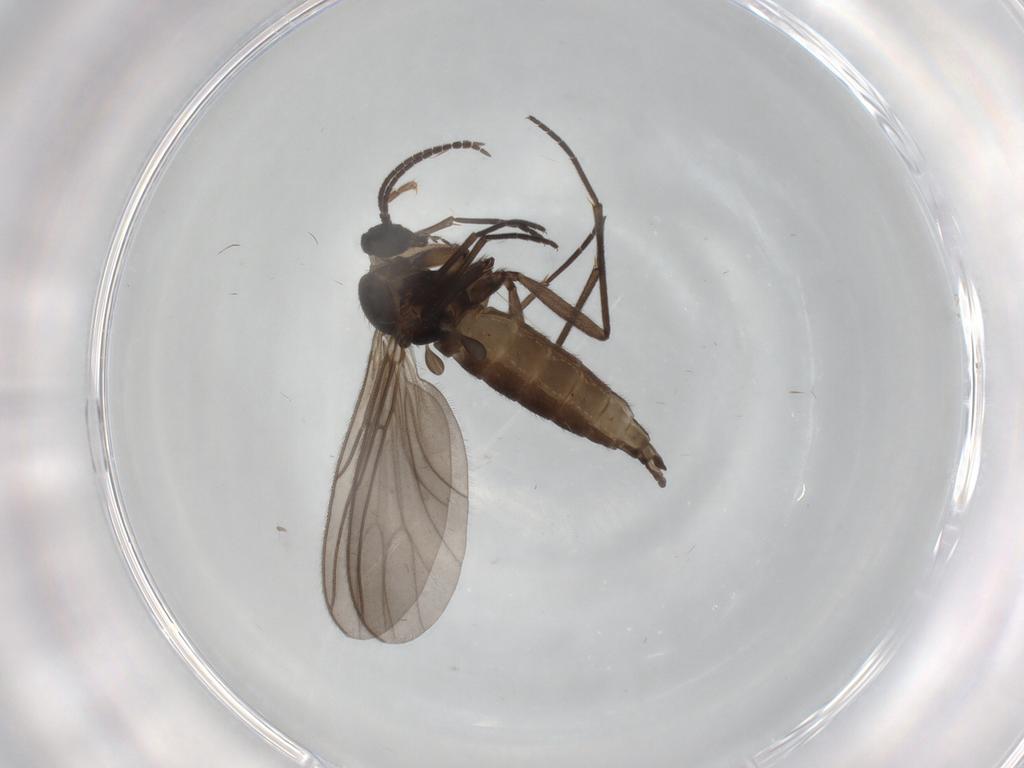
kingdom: Animalia
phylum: Arthropoda
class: Insecta
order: Diptera
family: Sciaridae
